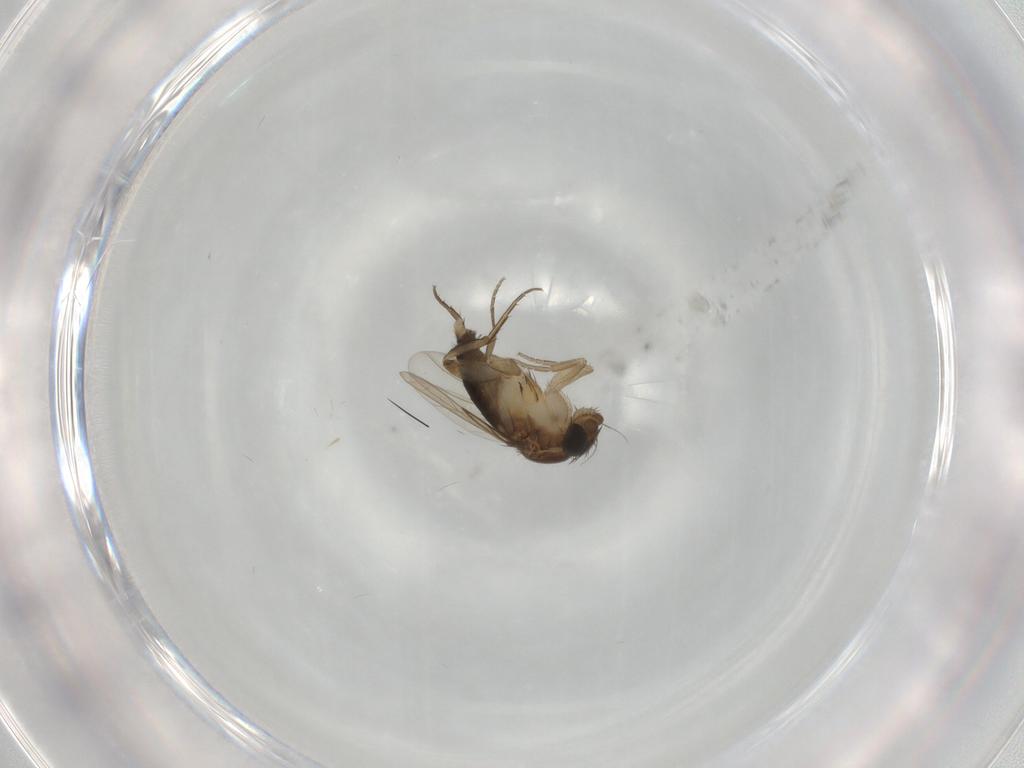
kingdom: Animalia
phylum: Arthropoda
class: Insecta
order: Diptera
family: Phoridae
